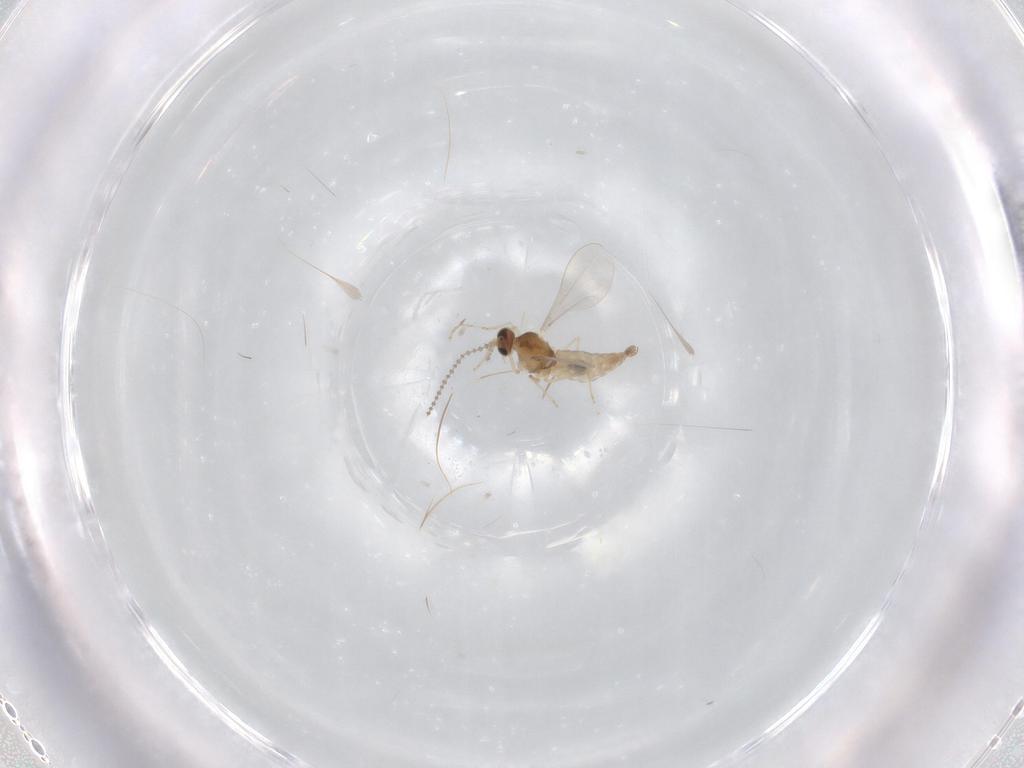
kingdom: Animalia
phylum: Arthropoda
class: Insecta
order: Diptera
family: Cecidomyiidae
